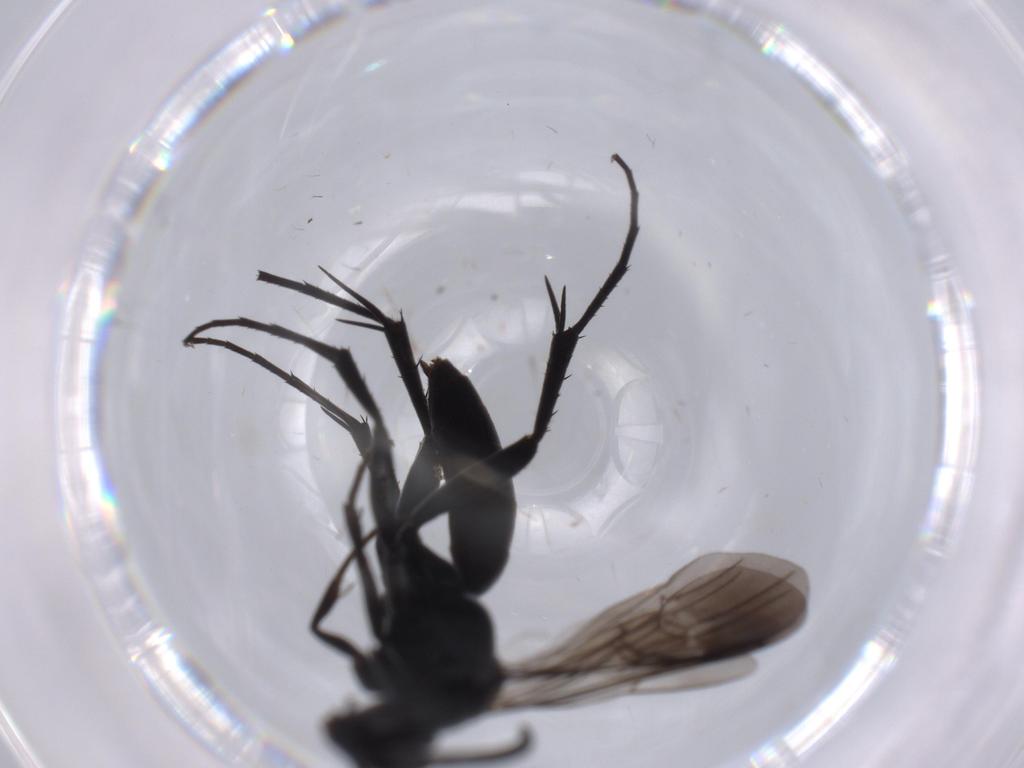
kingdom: Animalia
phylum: Arthropoda
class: Insecta
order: Hymenoptera
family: Pompilidae
